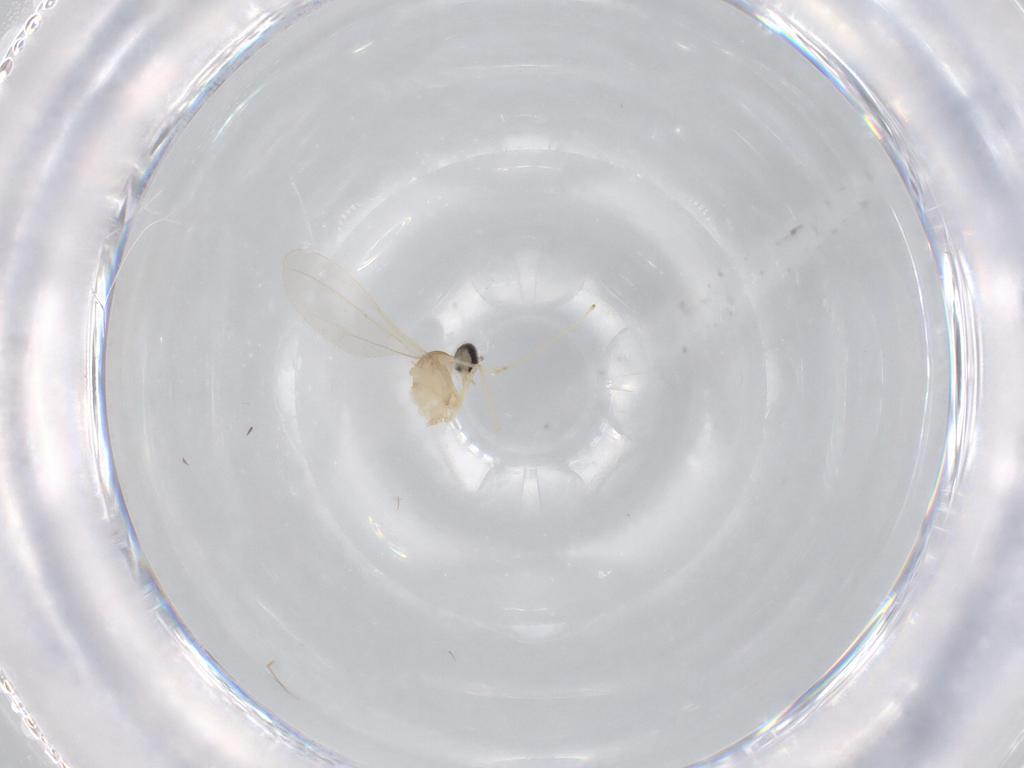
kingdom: Animalia
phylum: Arthropoda
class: Insecta
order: Diptera
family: Cecidomyiidae
